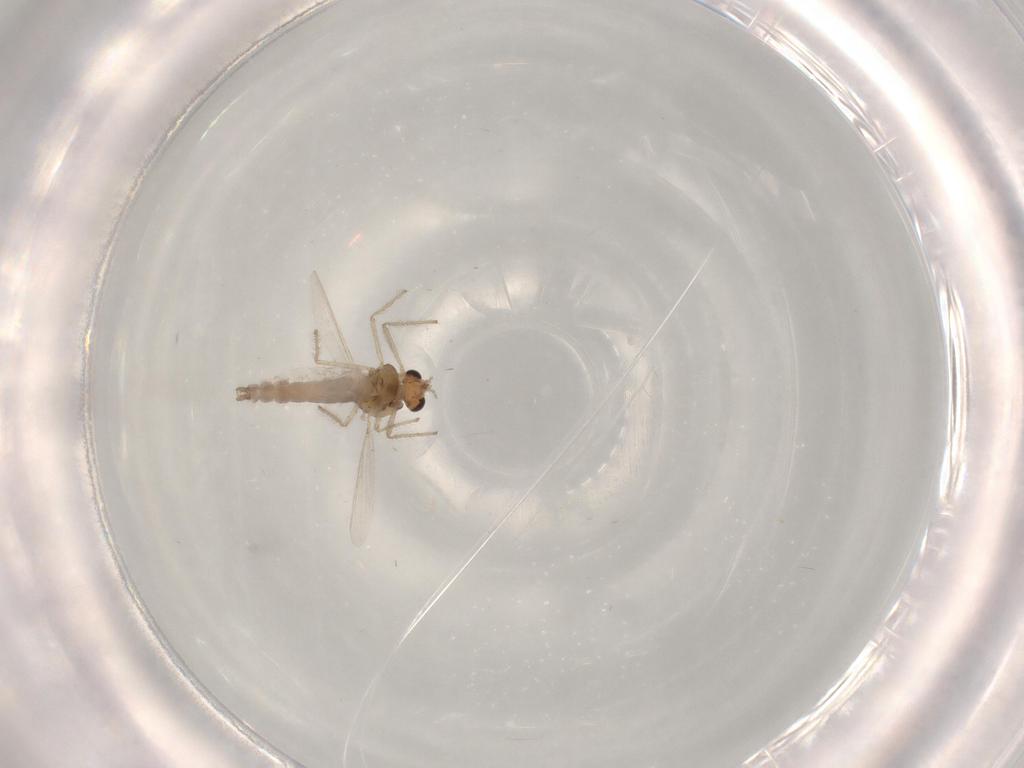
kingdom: Animalia
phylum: Arthropoda
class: Insecta
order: Diptera
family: Chironomidae
